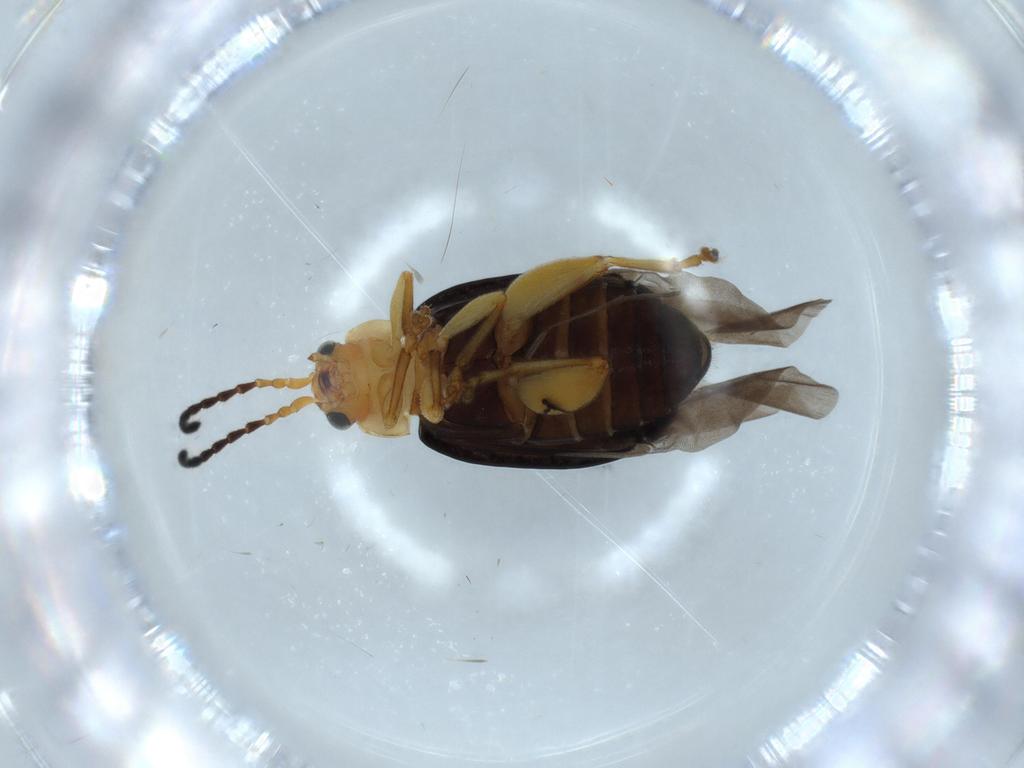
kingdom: Animalia
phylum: Arthropoda
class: Insecta
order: Coleoptera
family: Chrysomelidae
